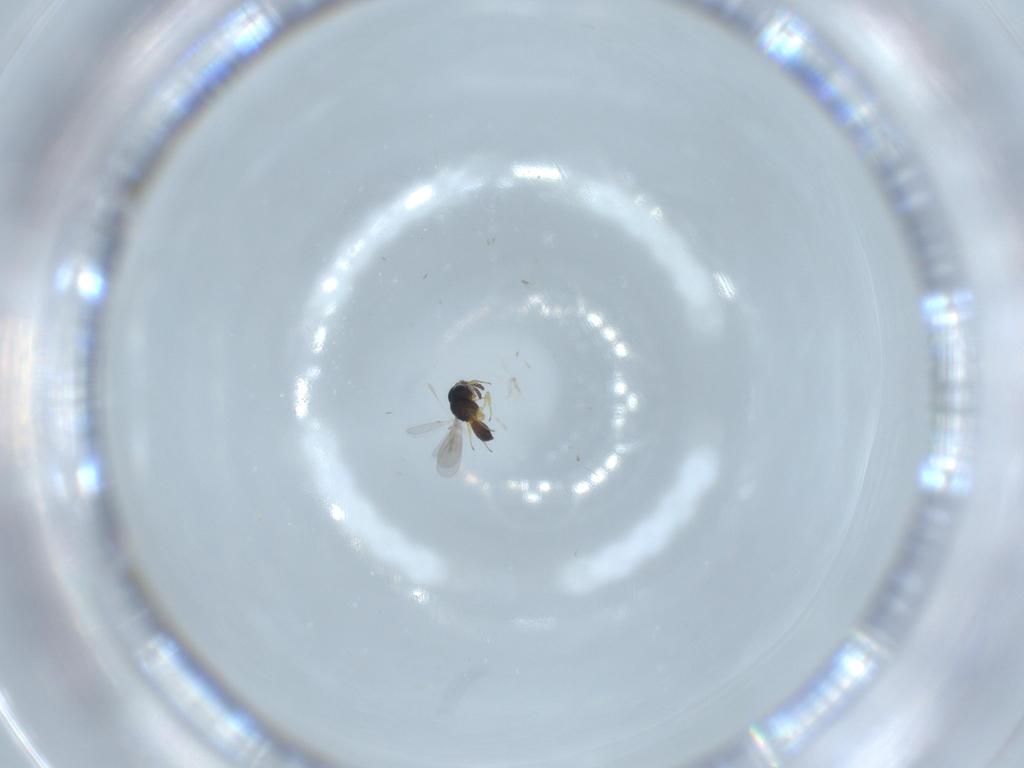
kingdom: Animalia
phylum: Arthropoda
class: Insecta
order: Hymenoptera
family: Scelionidae
